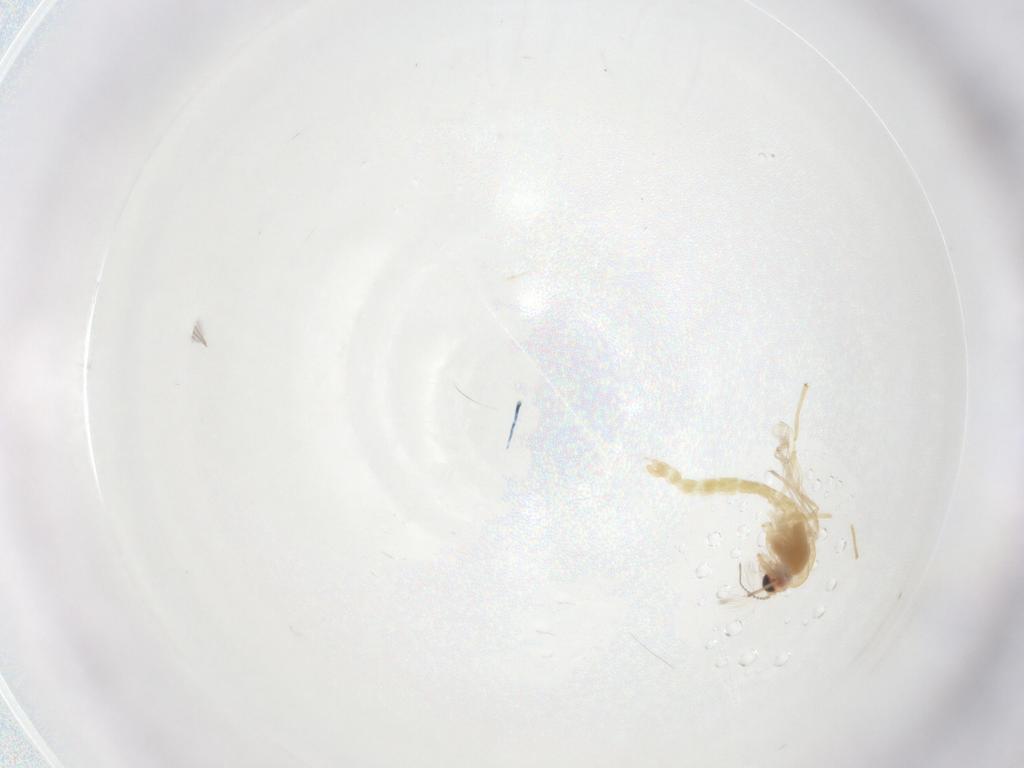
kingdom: Animalia
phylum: Arthropoda
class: Insecta
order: Diptera
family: Chironomidae
